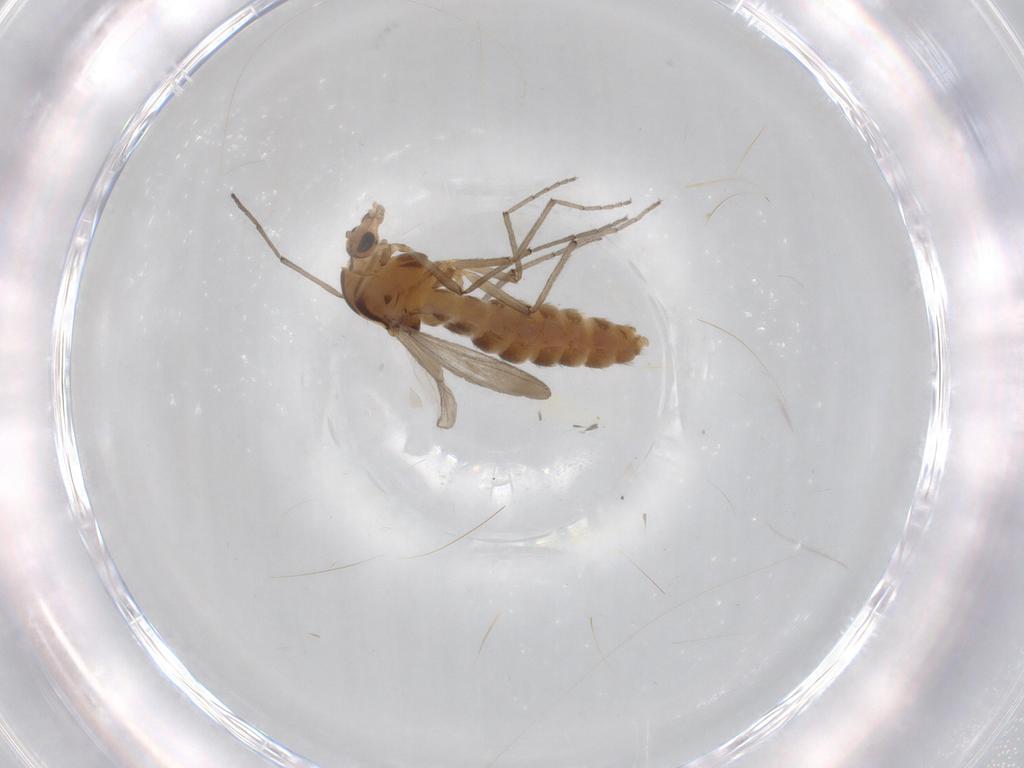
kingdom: Animalia
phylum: Arthropoda
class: Insecta
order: Diptera
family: Chironomidae
